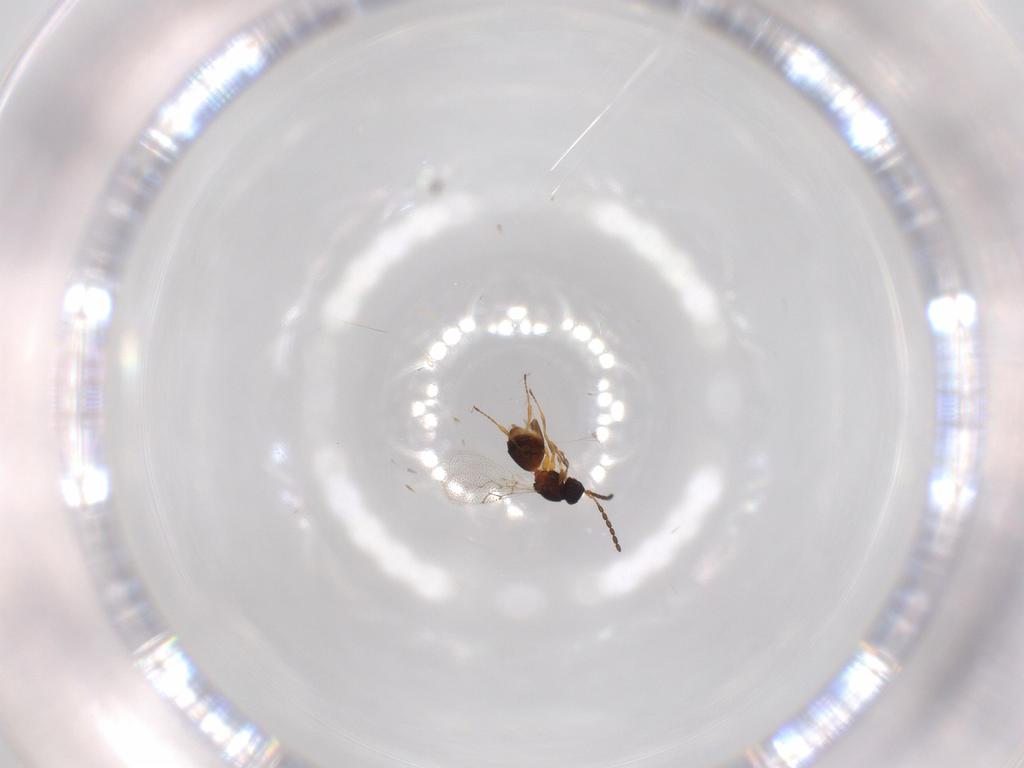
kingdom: Animalia
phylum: Arthropoda
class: Insecta
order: Hymenoptera
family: Figitidae
